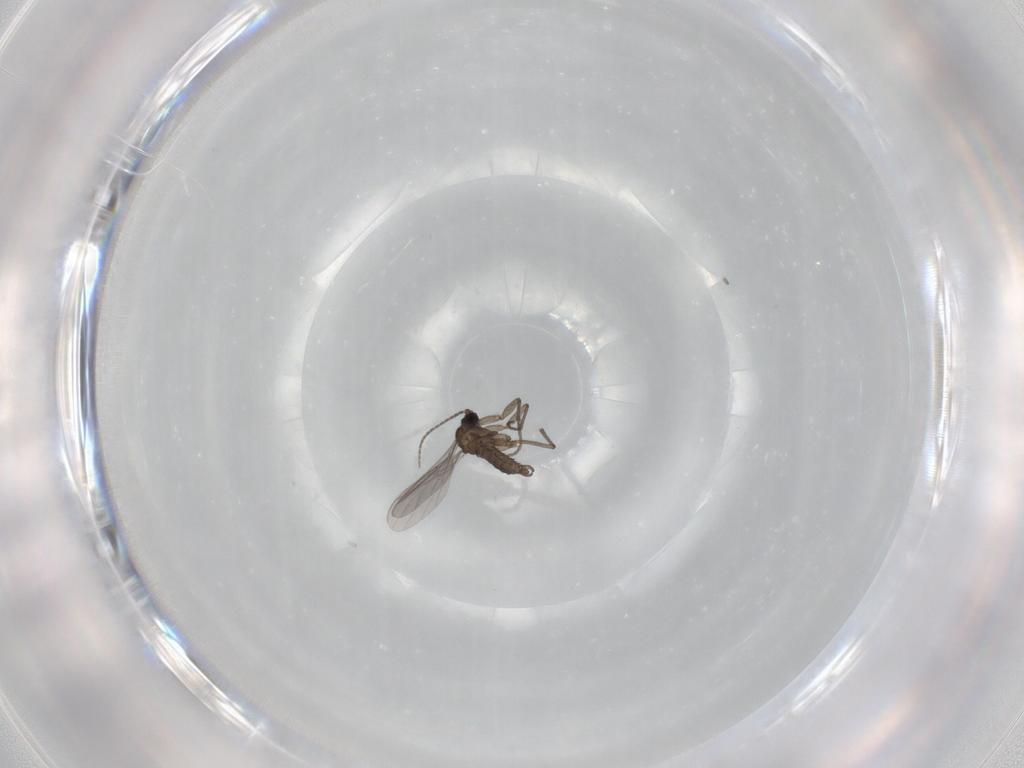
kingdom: Animalia
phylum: Arthropoda
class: Insecta
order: Diptera
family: Sciaridae
